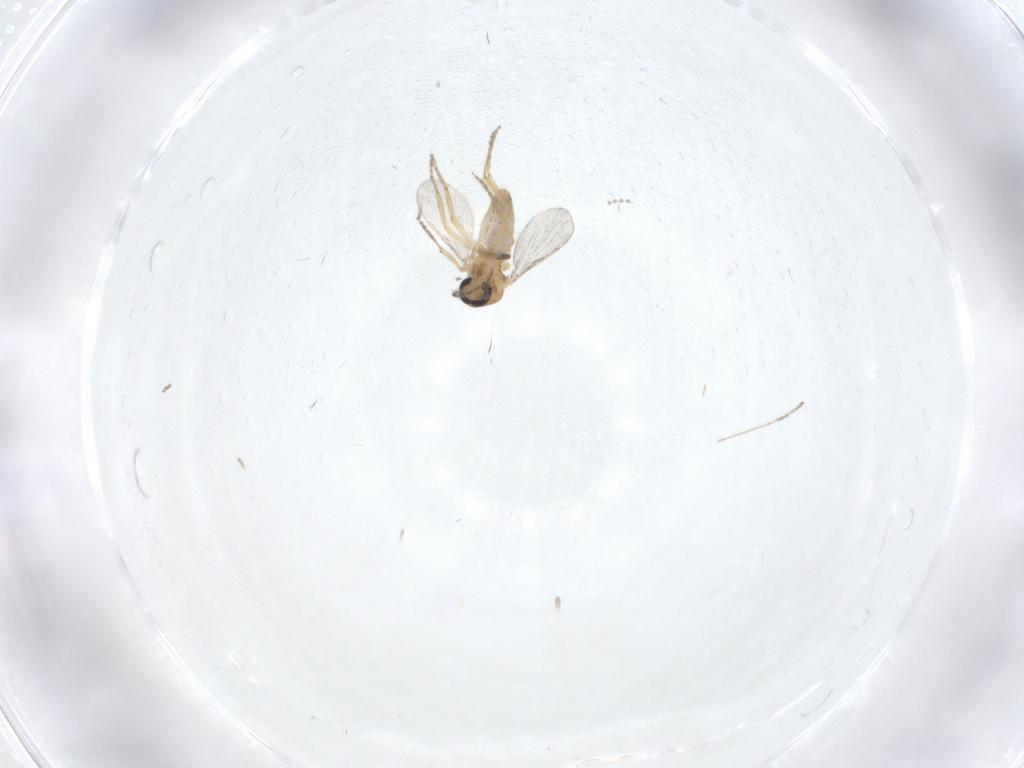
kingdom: Animalia
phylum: Arthropoda
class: Insecta
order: Diptera
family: Ceratopogonidae
